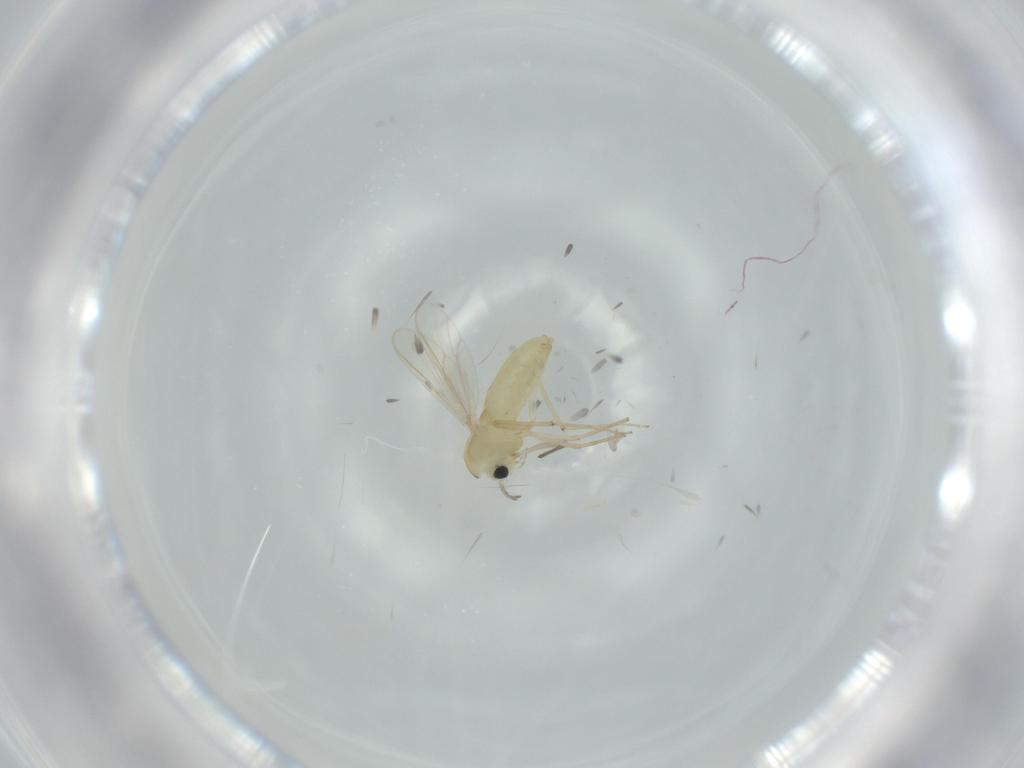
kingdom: Animalia
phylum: Arthropoda
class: Insecta
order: Diptera
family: Chironomidae
